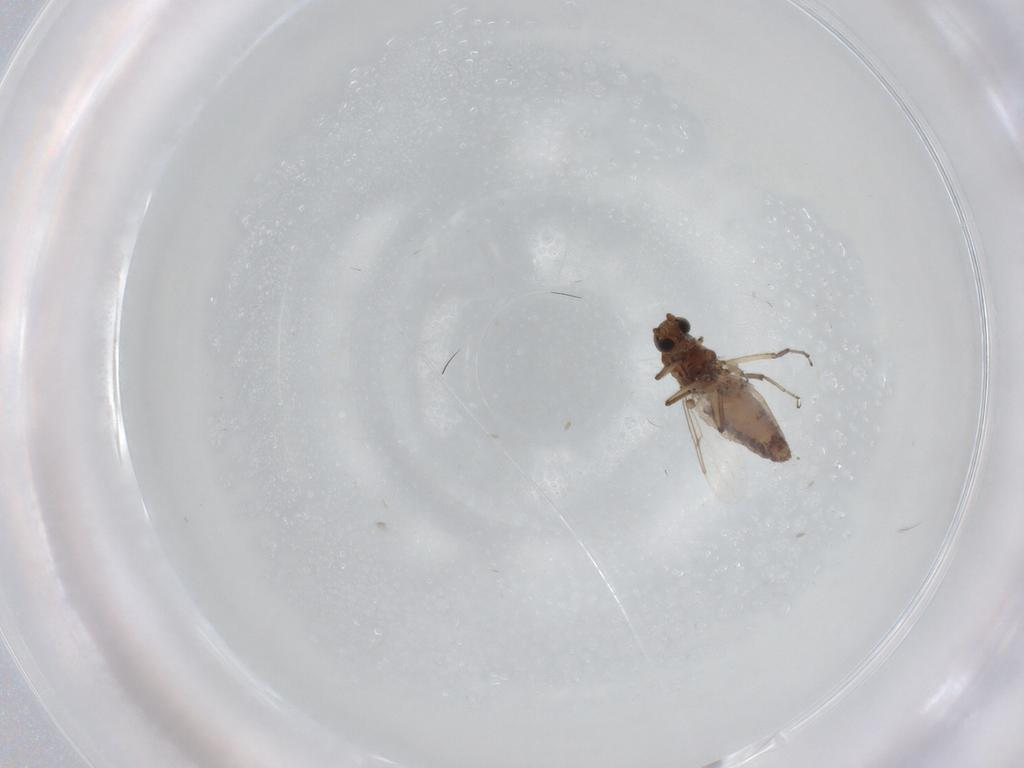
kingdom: Animalia
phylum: Arthropoda
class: Insecta
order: Diptera
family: Ceratopogonidae
